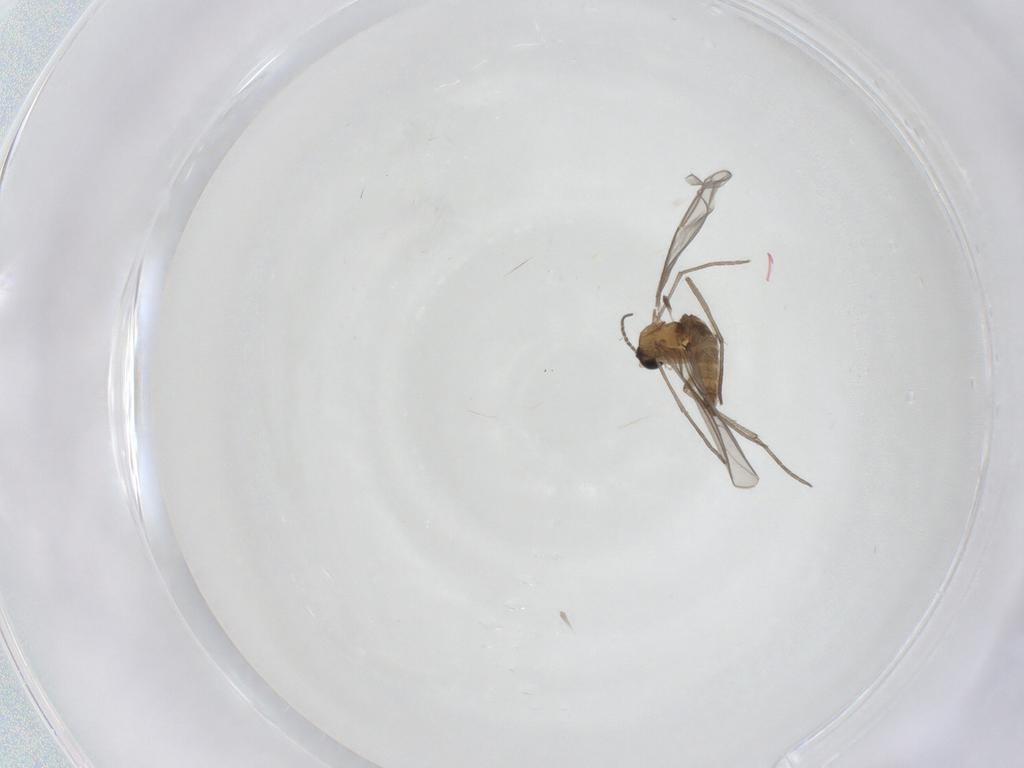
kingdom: Animalia
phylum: Arthropoda
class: Insecta
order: Diptera
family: Sciaridae
